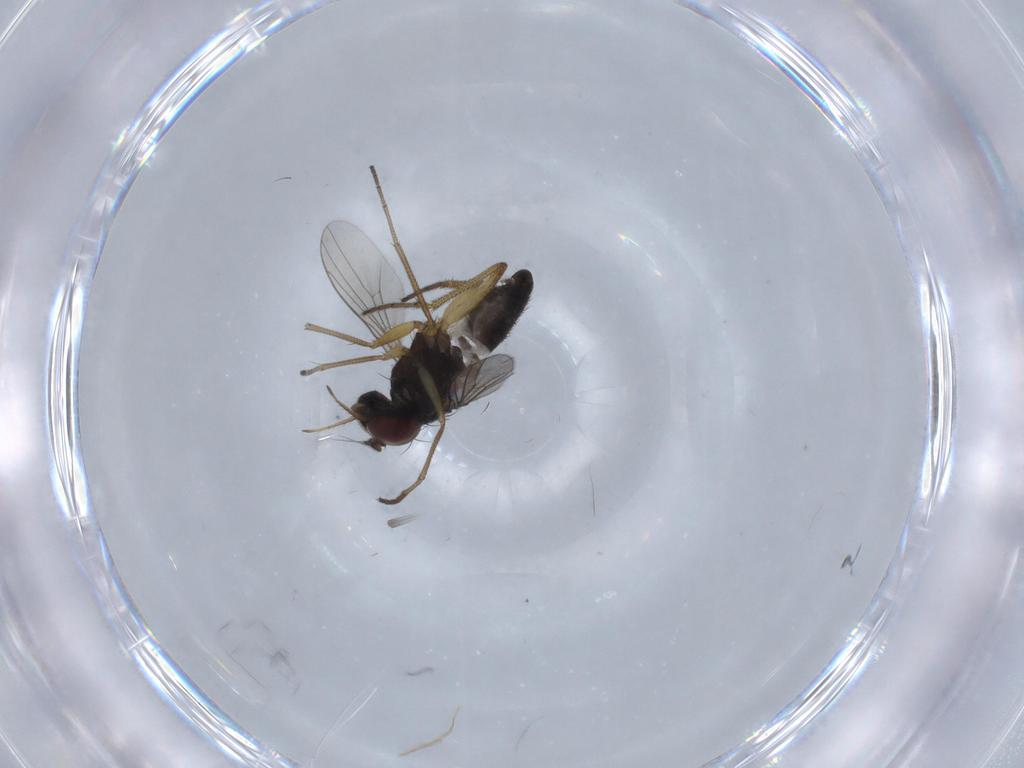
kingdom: Animalia
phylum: Arthropoda
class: Insecta
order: Diptera
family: Dolichopodidae
